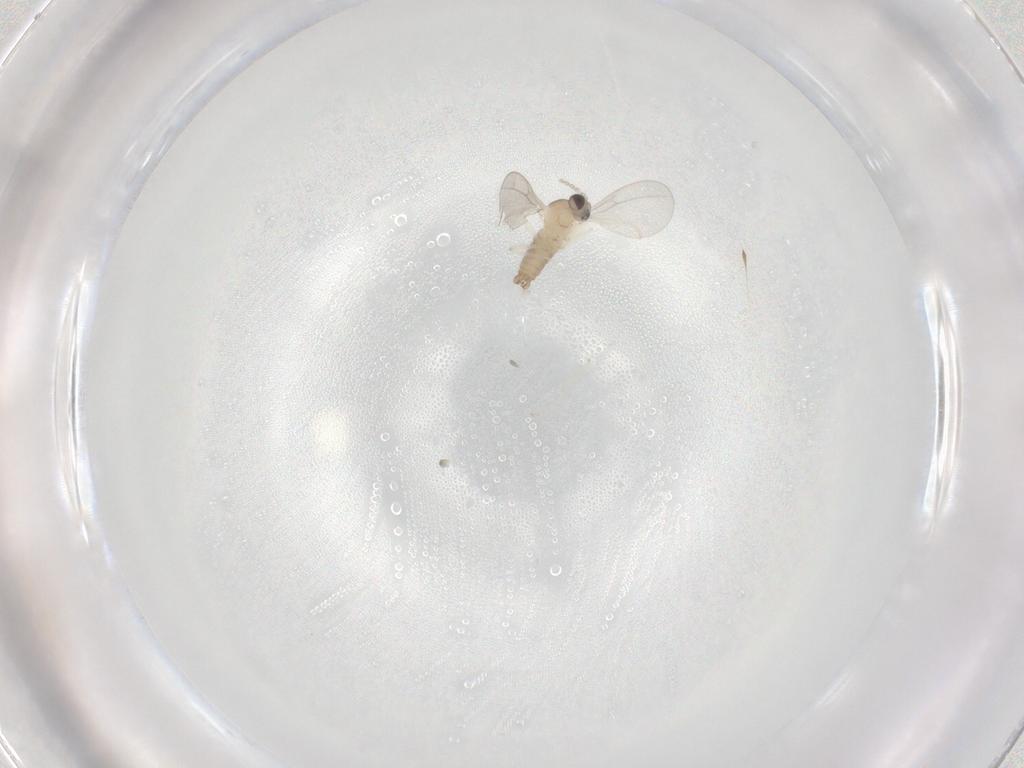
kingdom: Animalia
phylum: Arthropoda
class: Insecta
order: Diptera
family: Cecidomyiidae
